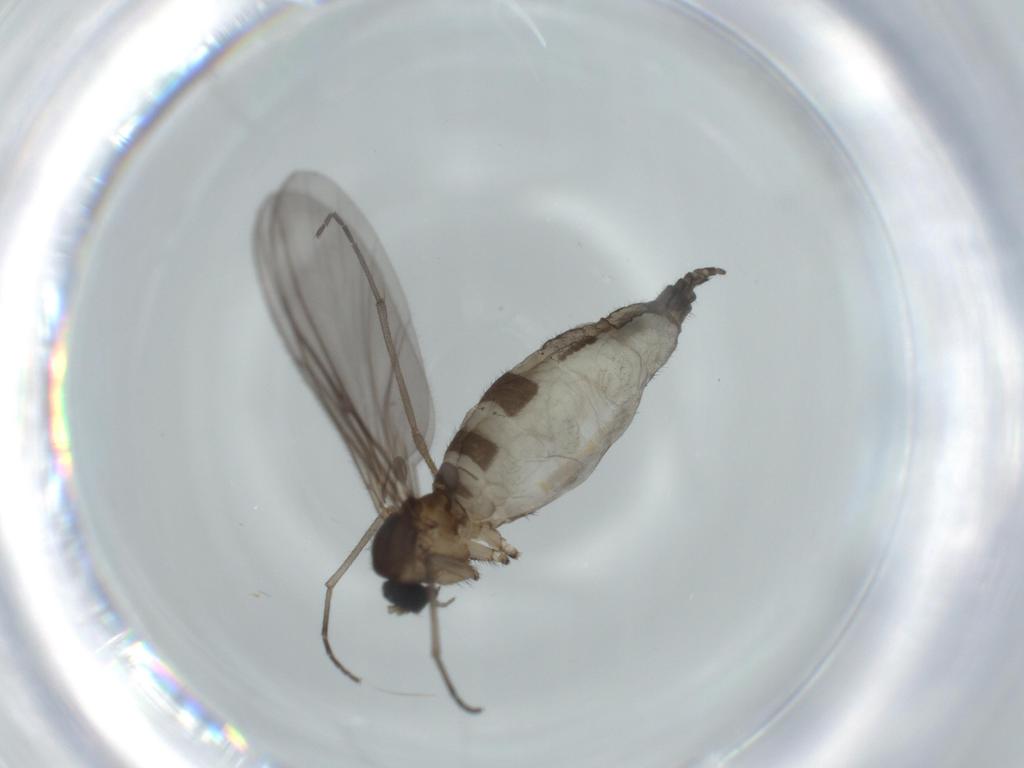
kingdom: Animalia
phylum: Arthropoda
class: Insecta
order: Diptera
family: Sciaridae
